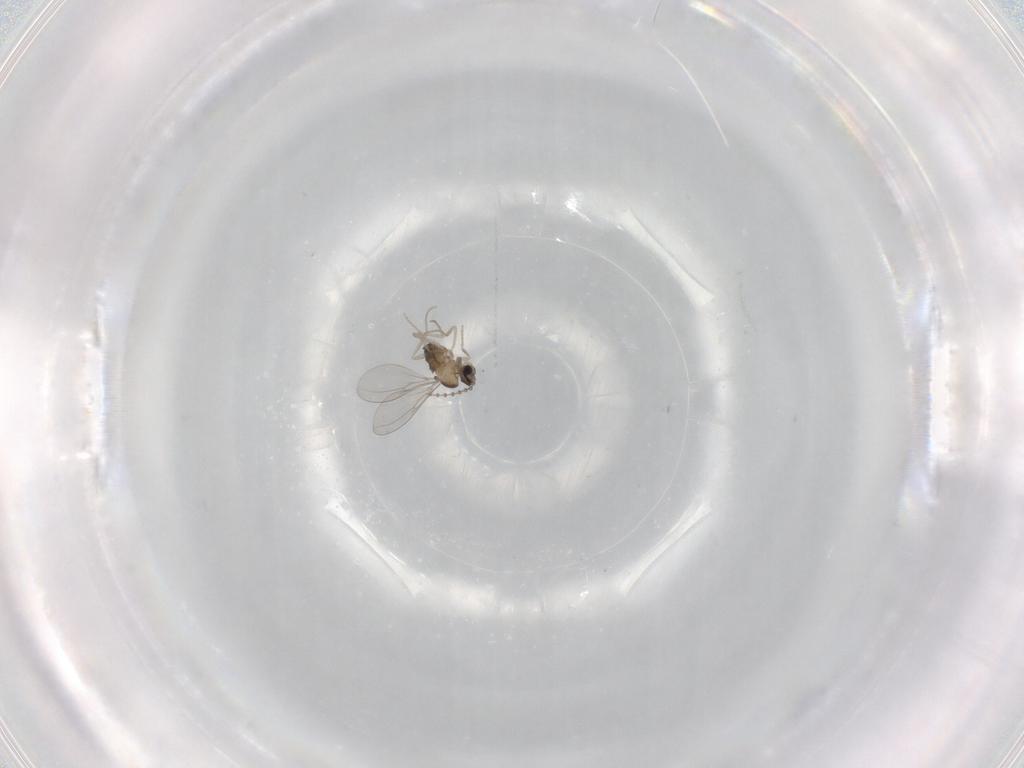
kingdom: Animalia
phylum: Arthropoda
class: Insecta
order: Diptera
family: Cecidomyiidae
